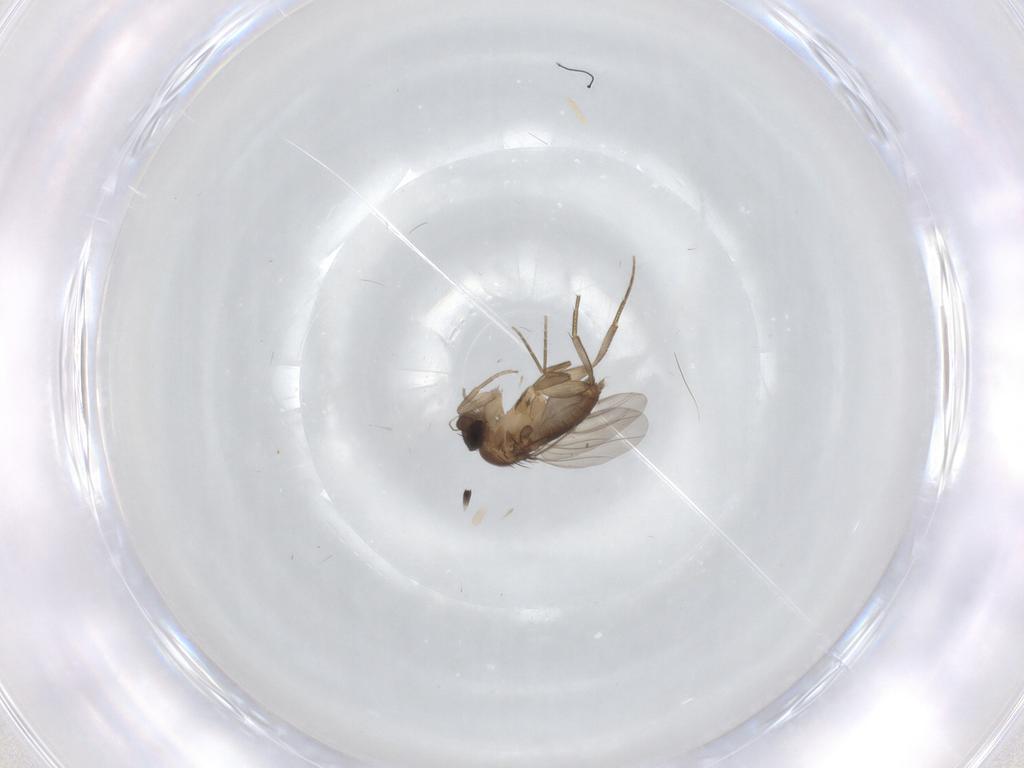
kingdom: Animalia
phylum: Arthropoda
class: Insecta
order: Diptera
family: Phoridae
